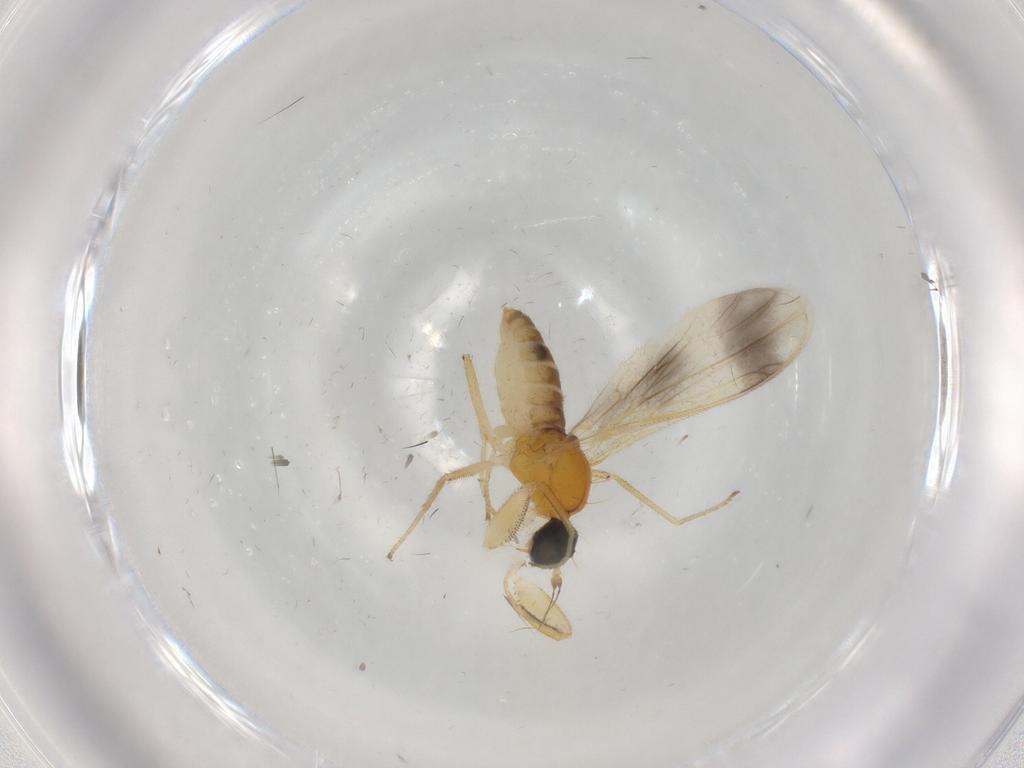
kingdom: Animalia
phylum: Arthropoda
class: Insecta
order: Diptera
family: Empididae
